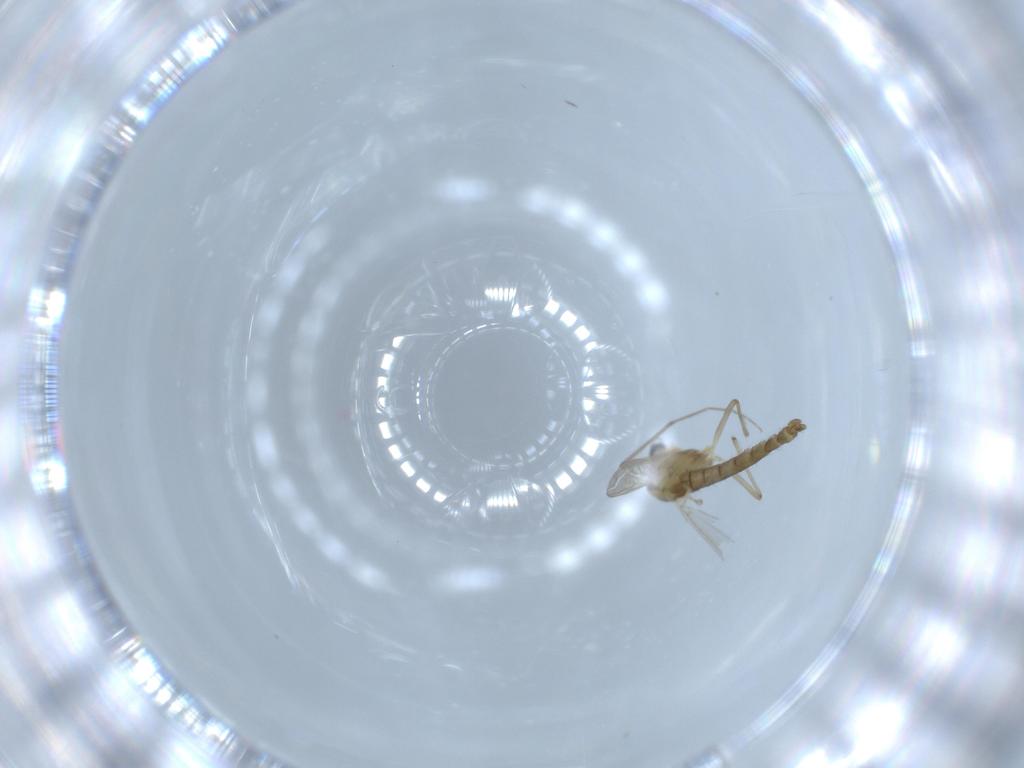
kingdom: Animalia
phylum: Arthropoda
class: Insecta
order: Diptera
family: Chironomidae
